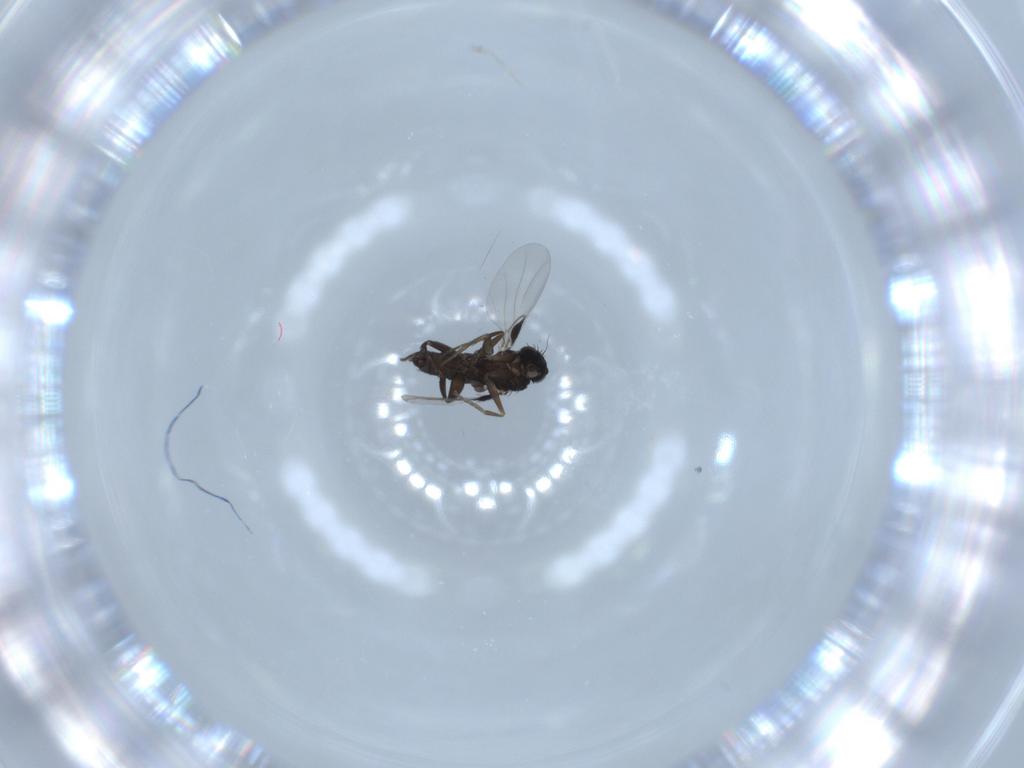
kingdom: Animalia
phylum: Arthropoda
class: Insecta
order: Diptera
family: Phoridae
